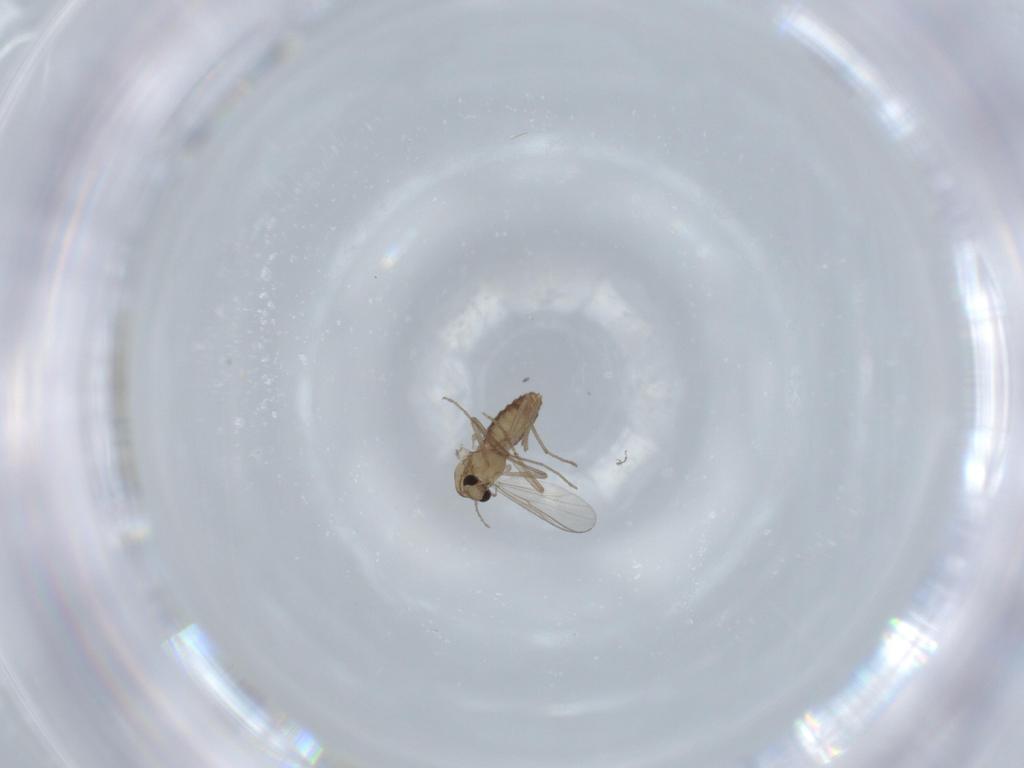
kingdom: Animalia
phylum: Arthropoda
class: Insecta
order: Diptera
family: Chironomidae
